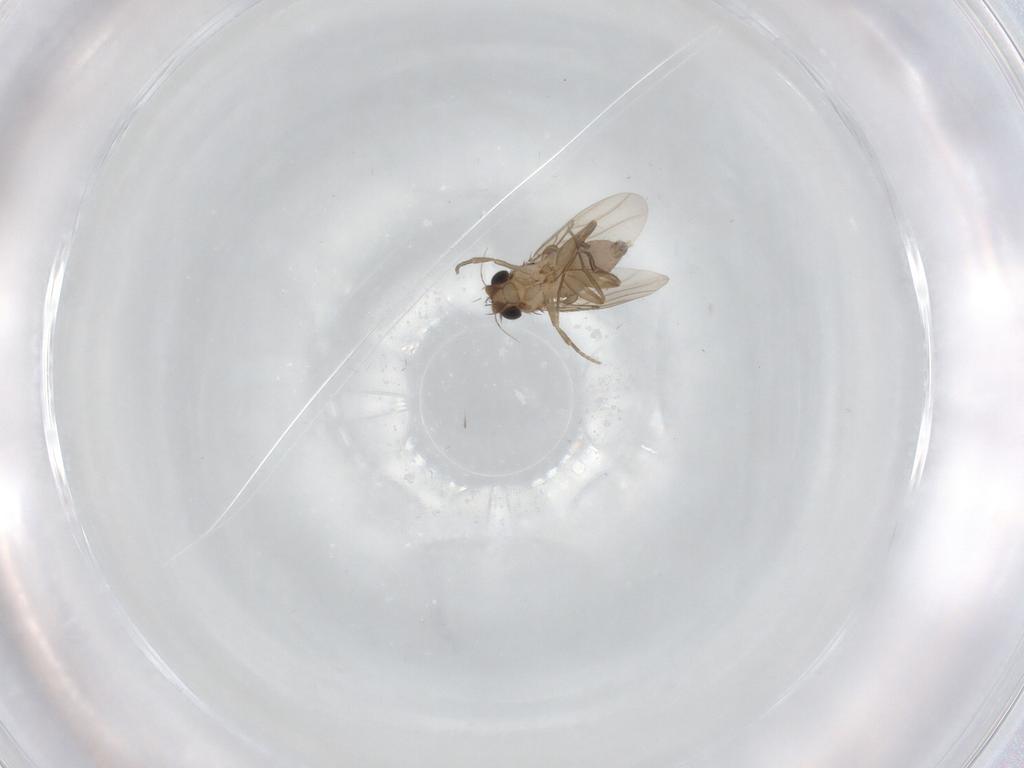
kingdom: Animalia
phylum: Arthropoda
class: Insecta
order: Diptera
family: Phoridae
